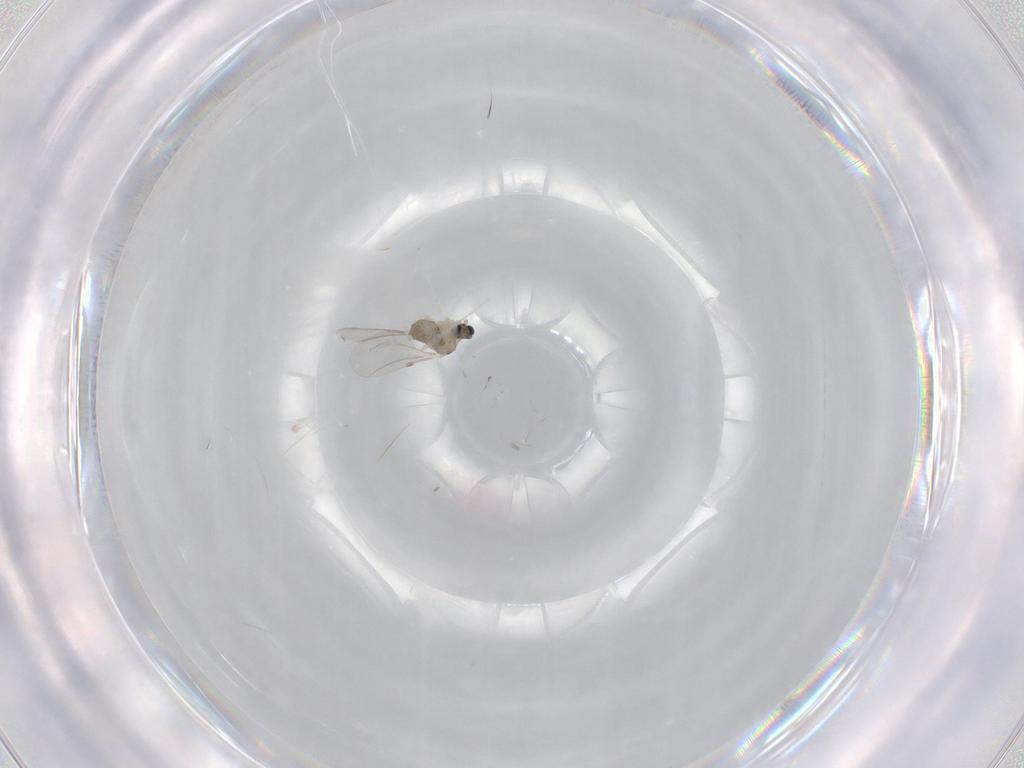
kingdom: Animalia
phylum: Arthropoda
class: Insecta
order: Diptera
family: Cecidomyiidae
